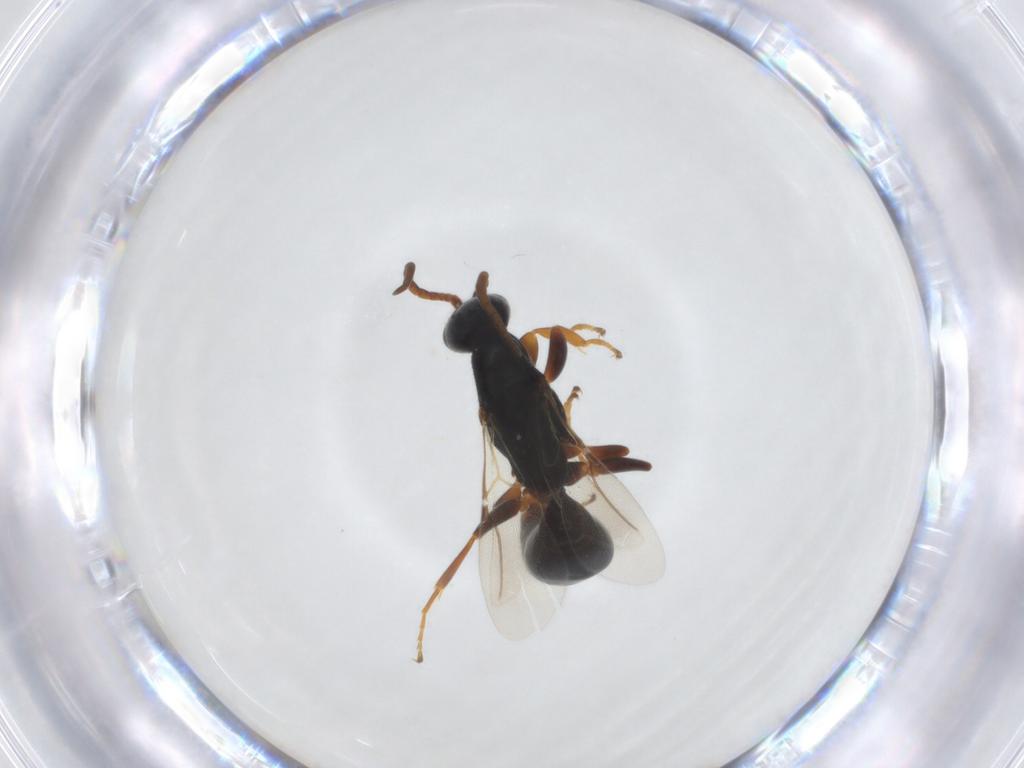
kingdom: Animalia
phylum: Arthropoda
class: Insecta
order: Hymenoptera
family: Bethylidae
